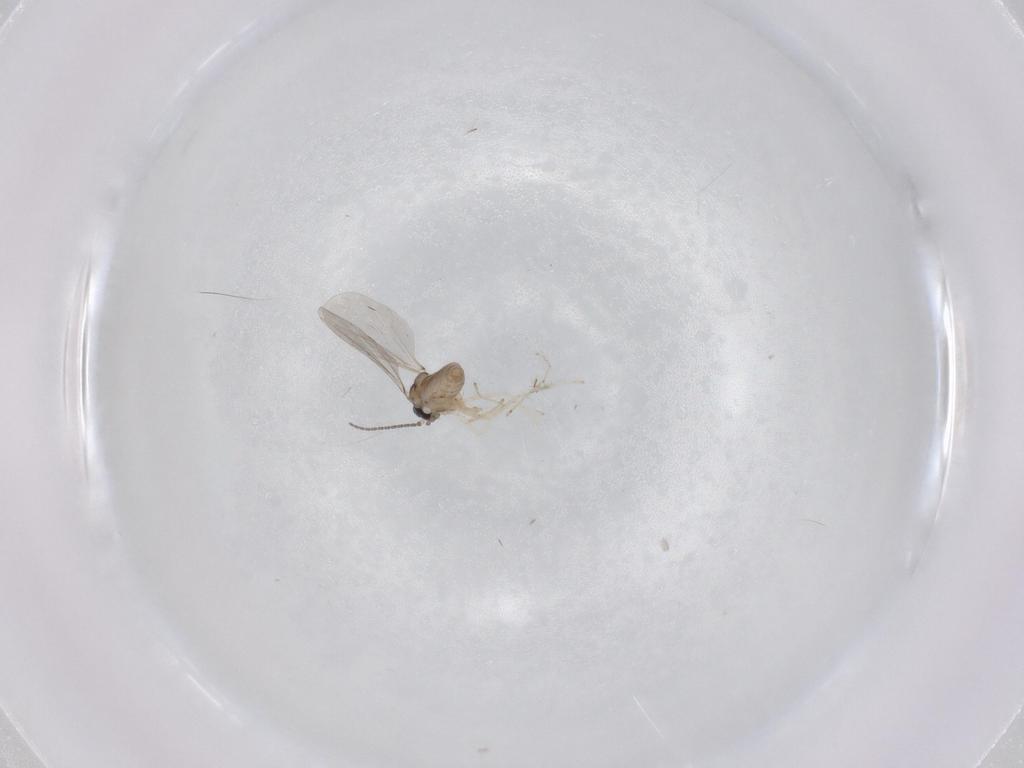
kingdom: Animalia
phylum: Arthropoda
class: Insecta
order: Diptera
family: Cecidomyiidae
